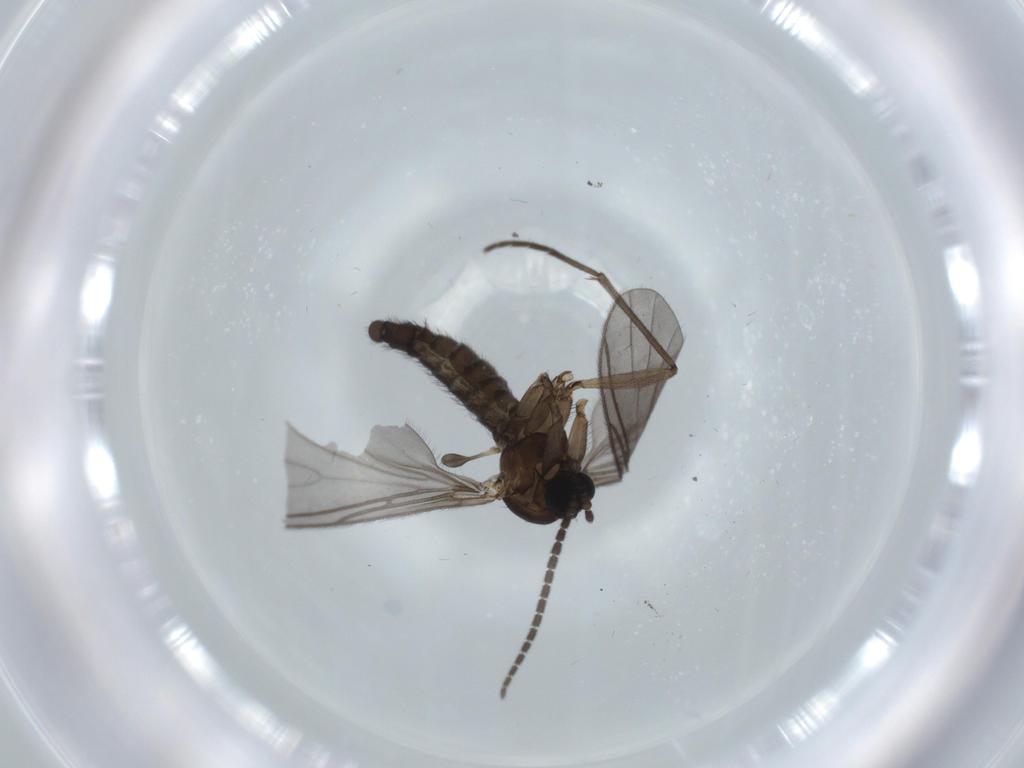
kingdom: Animalia
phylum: Arthropoda
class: Insecta
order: Diptera
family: Cecidomyiidae
